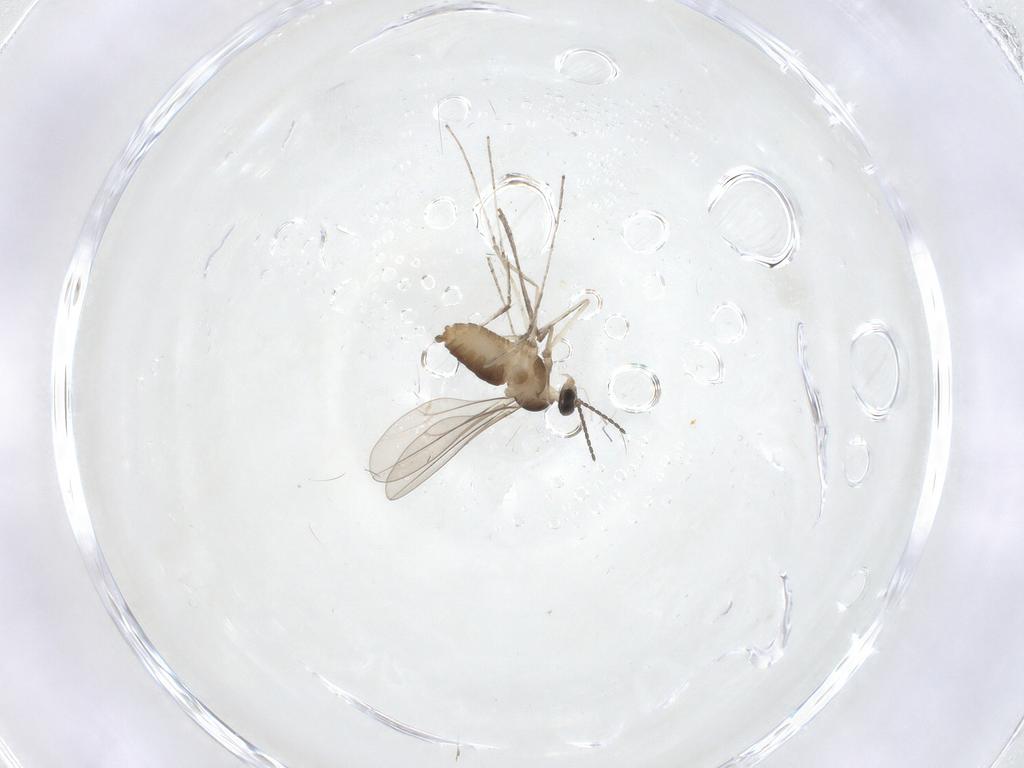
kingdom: Animalia
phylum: Arthropoda
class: Insecta
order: Diptera
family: Cecidomyiidae
